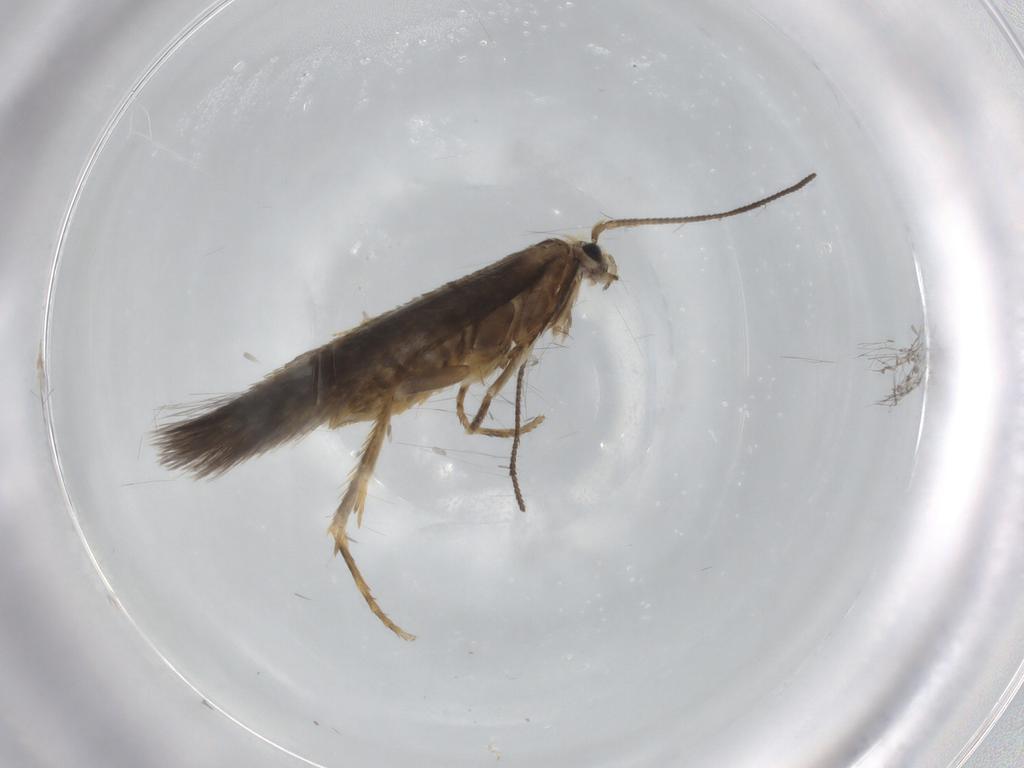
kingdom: Animalia
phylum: Arthropoda
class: Insecta
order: Lepidoptera
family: Nepticulidae
